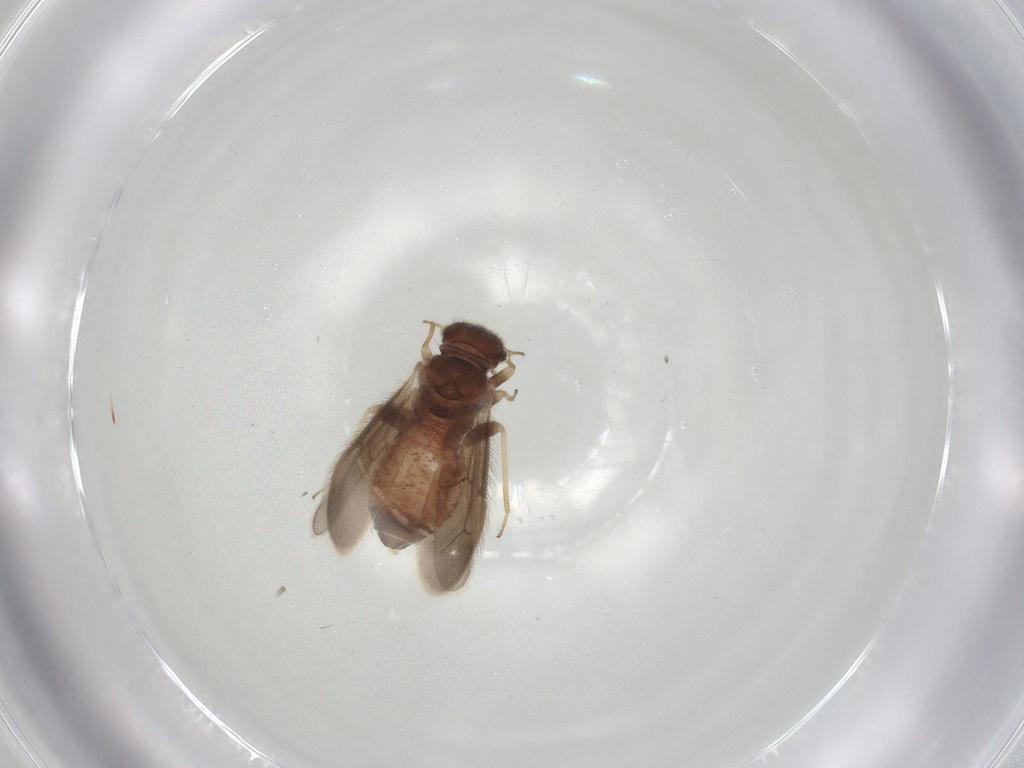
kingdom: Animalia
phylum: Arthropoda
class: Insecta
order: Psocodea
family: Archipsocidae
